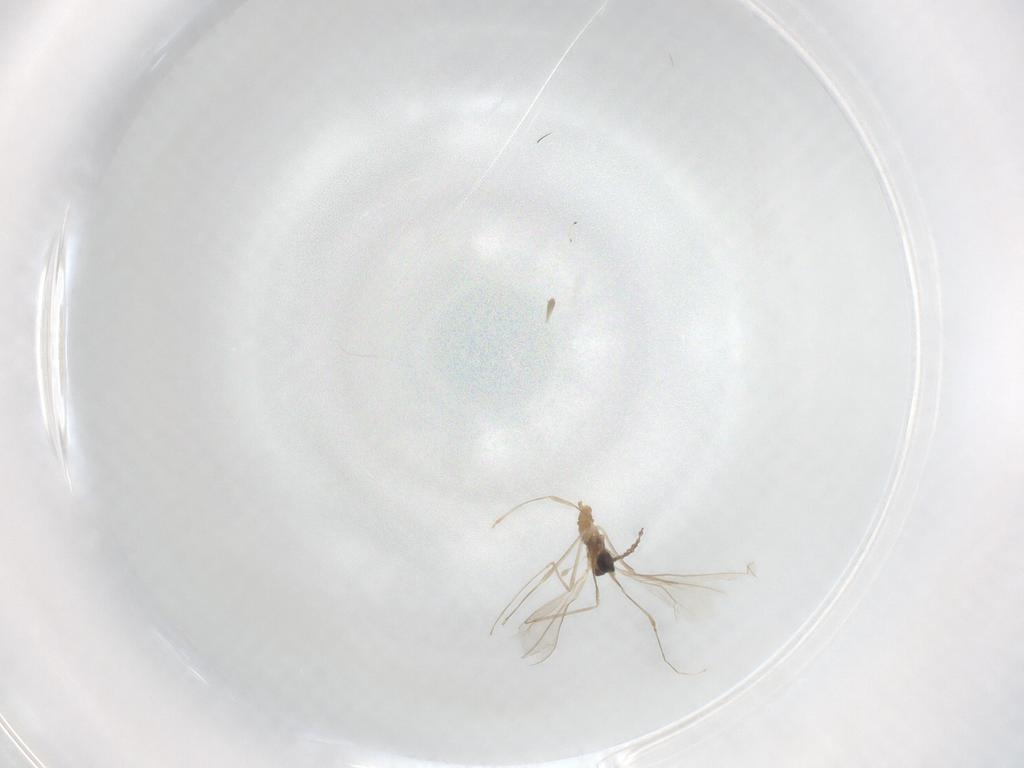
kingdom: Animalia
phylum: Arthropoda
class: Insecta
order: Diptera
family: Cecidomyiidae
